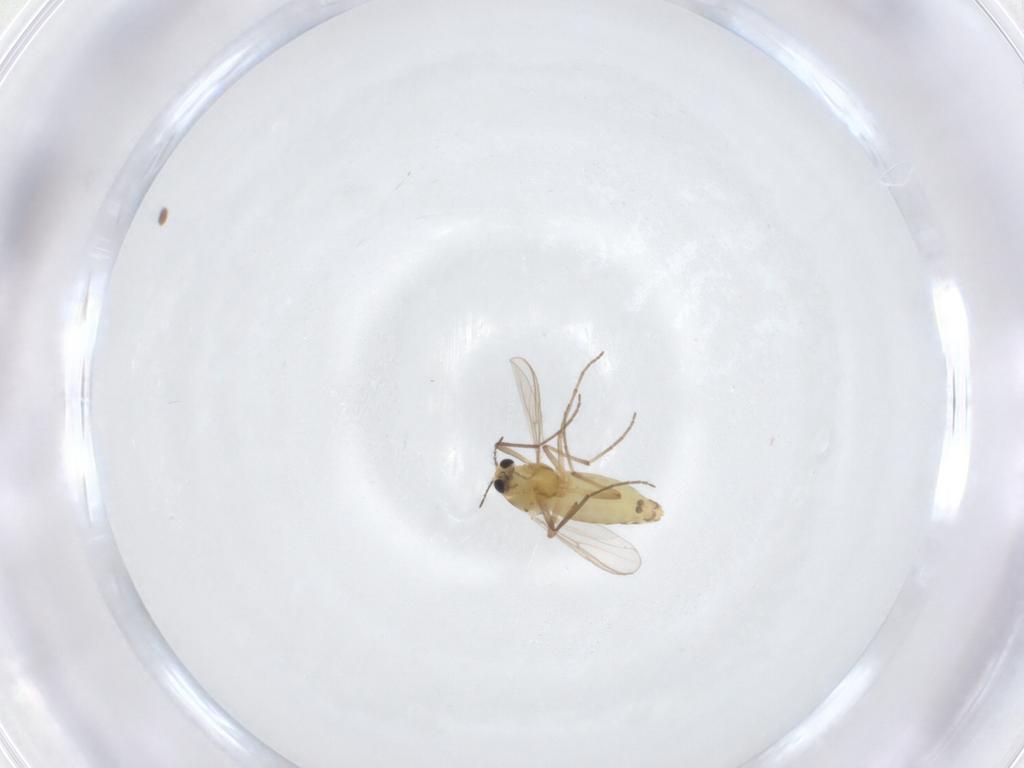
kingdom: Animalia
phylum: Arthropoda
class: Insecta
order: Diptera
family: Chironomidae
